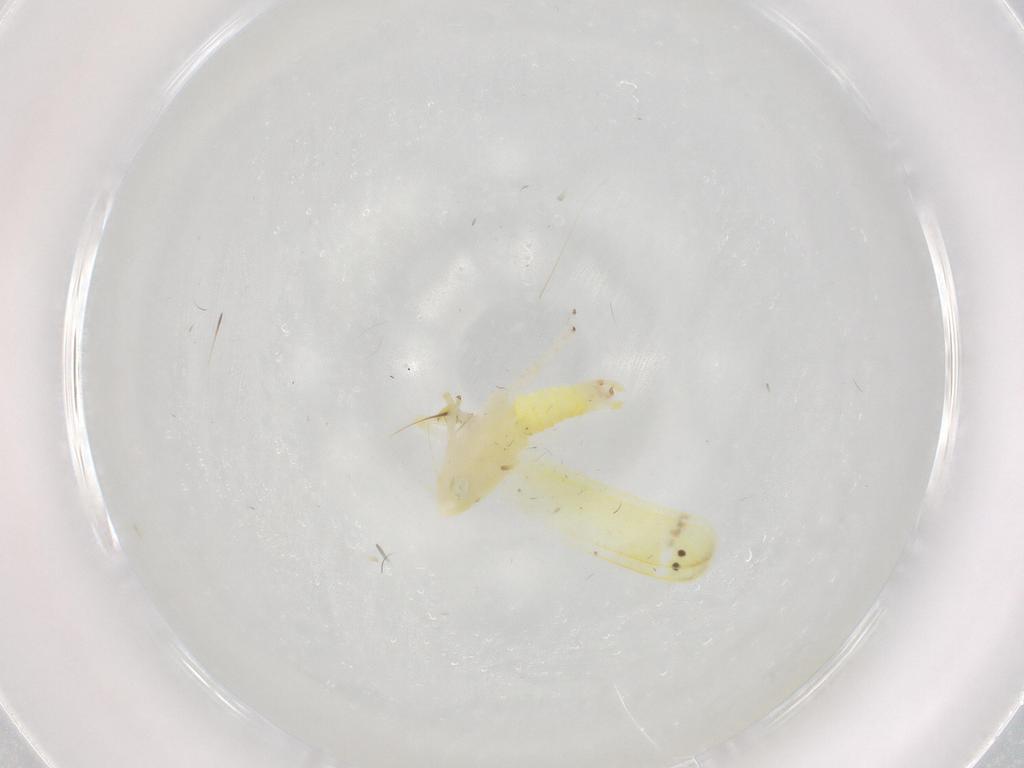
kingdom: Animalia
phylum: Arthropoda
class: Insecta
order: Hemiptera
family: Cicadellidae
